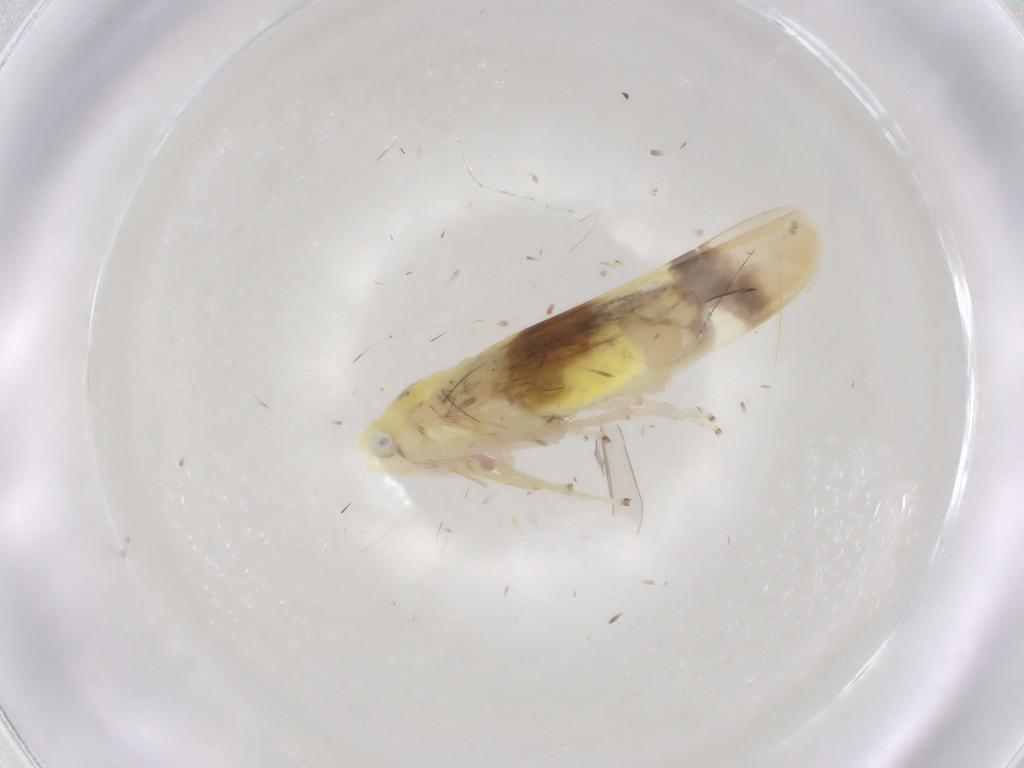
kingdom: Animalia
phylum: Arthropoda
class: Insecta
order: Hemiptera
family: Cicadellidae
